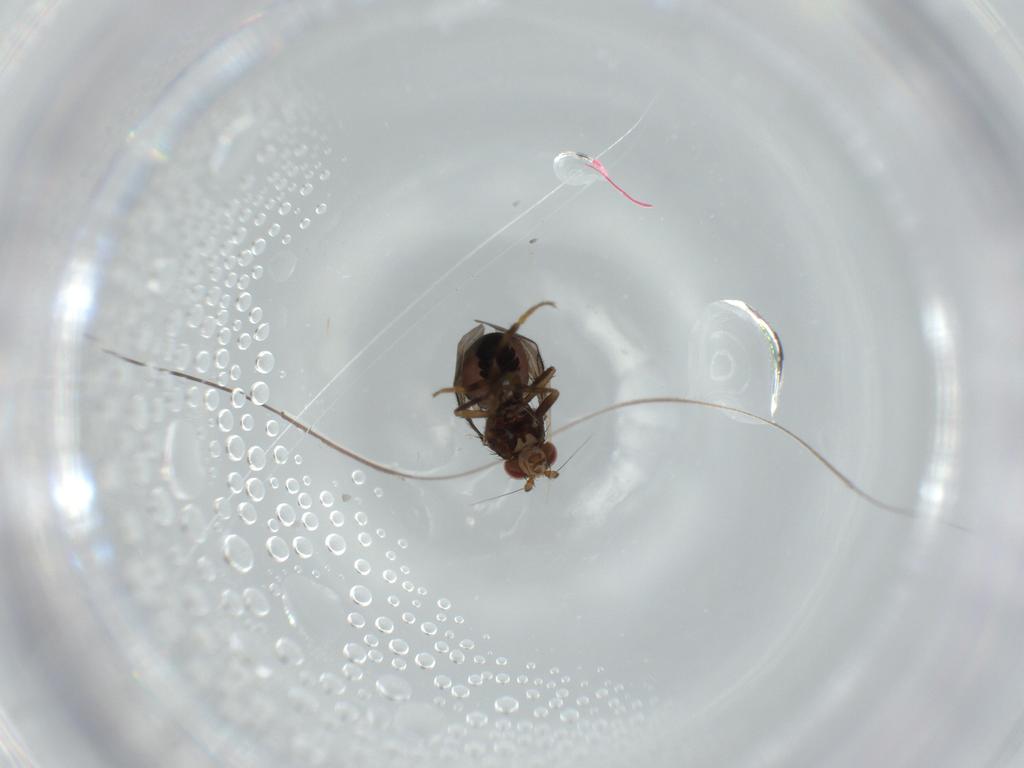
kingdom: Animalia
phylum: Arthropoda
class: Insecta
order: Diptera
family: Sphaeroceridae
